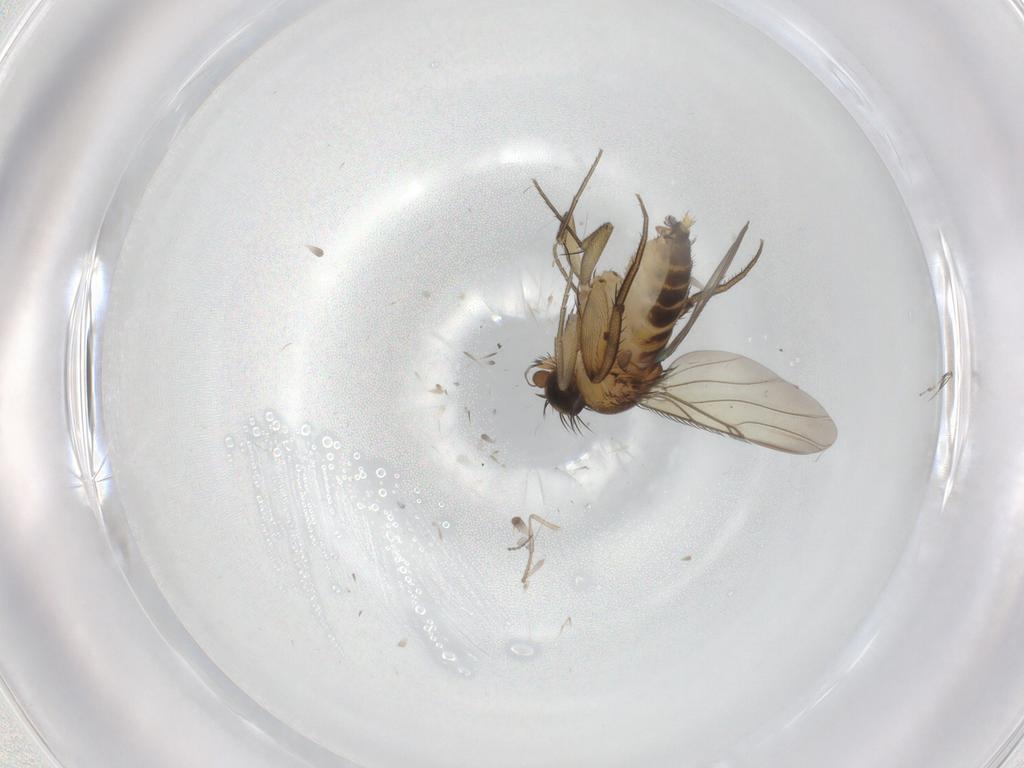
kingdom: Animalia
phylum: Arthropoda
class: Insecta
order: Diptera
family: Phoridae
